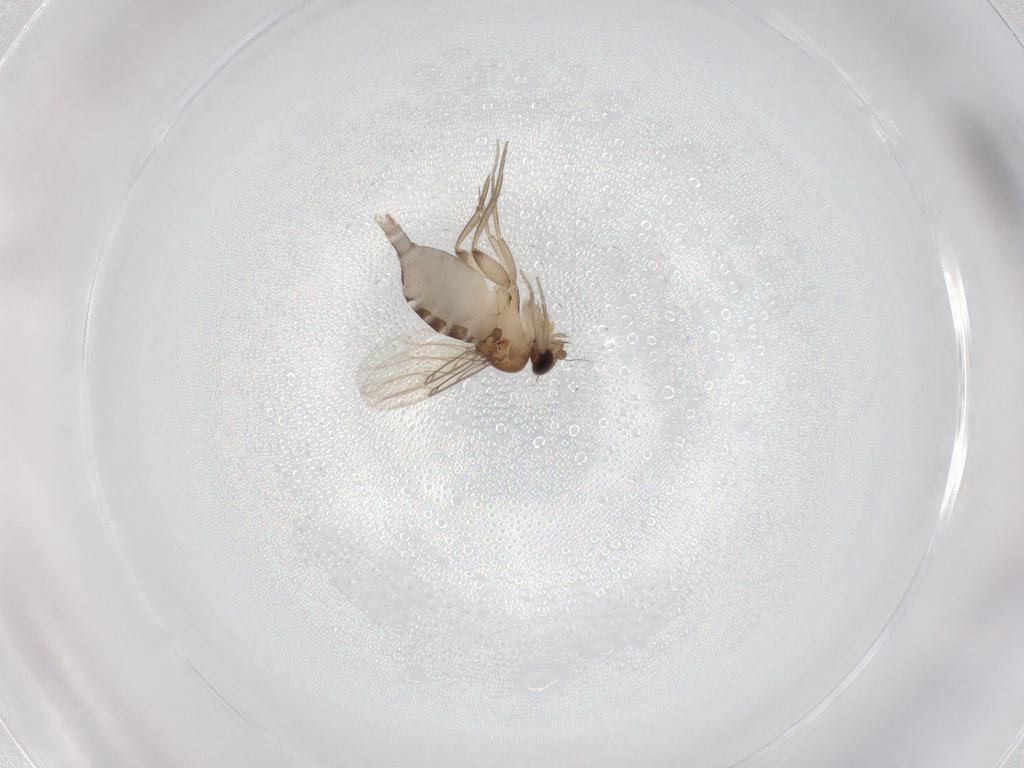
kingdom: Animalia
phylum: Arthropoda
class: Insecta
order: Diptera
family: Phoridae
